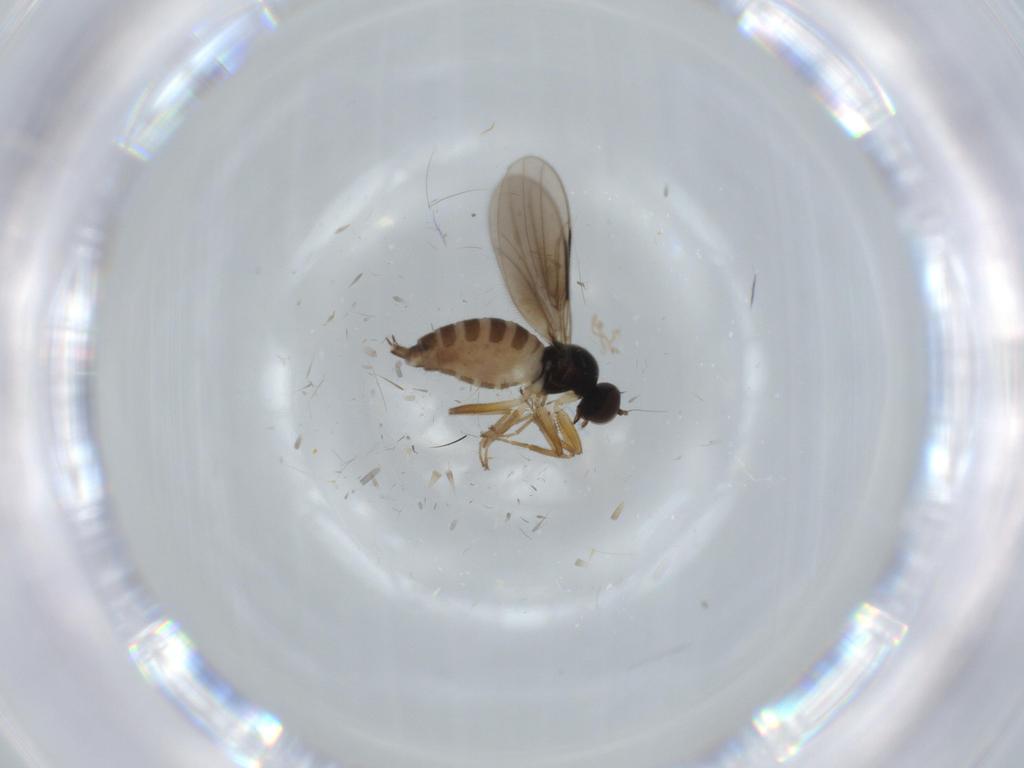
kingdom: Animalia
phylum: Arthropoda
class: Insecta
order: Diptera
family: Hybotidae
